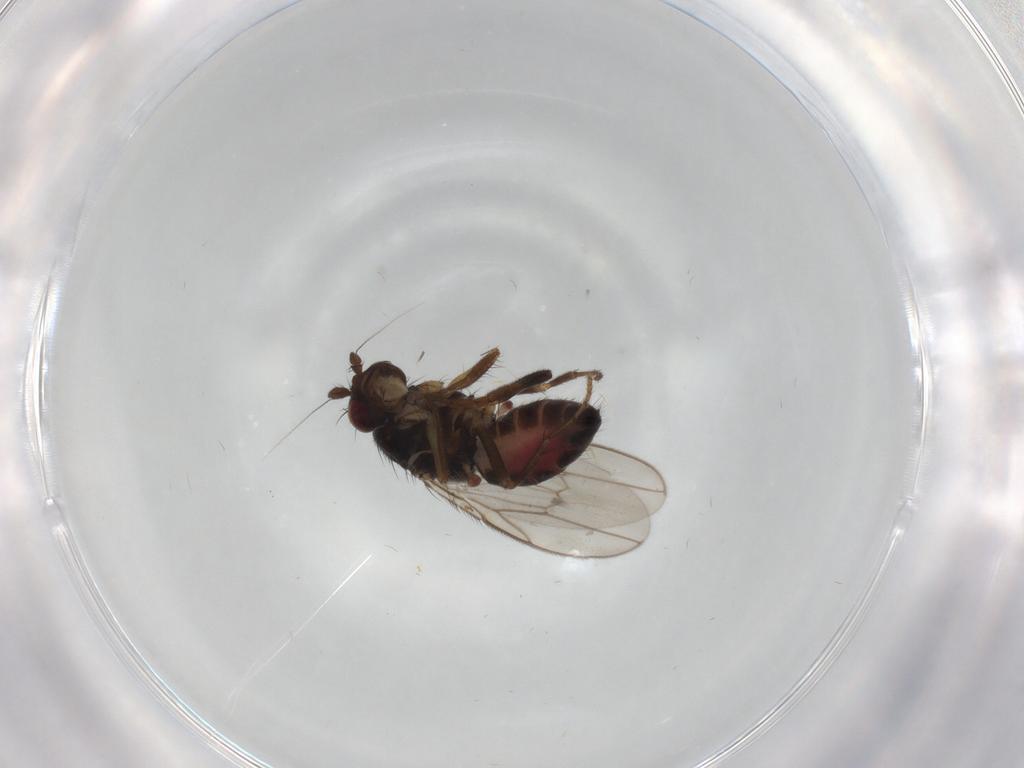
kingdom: Animalia
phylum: Arthropoda
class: Insecta
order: Diptera
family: Sphaeroceridae
